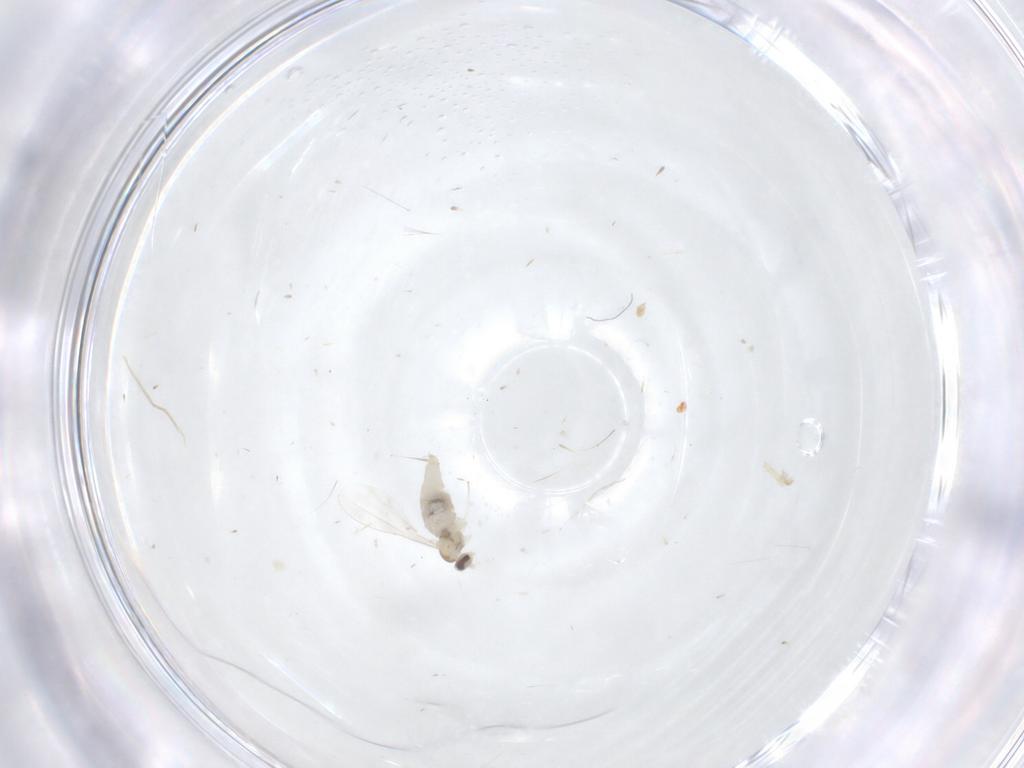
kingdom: Animalia
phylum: Arthropoda
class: Insecta
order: Diptera
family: Cecidomyiidae
